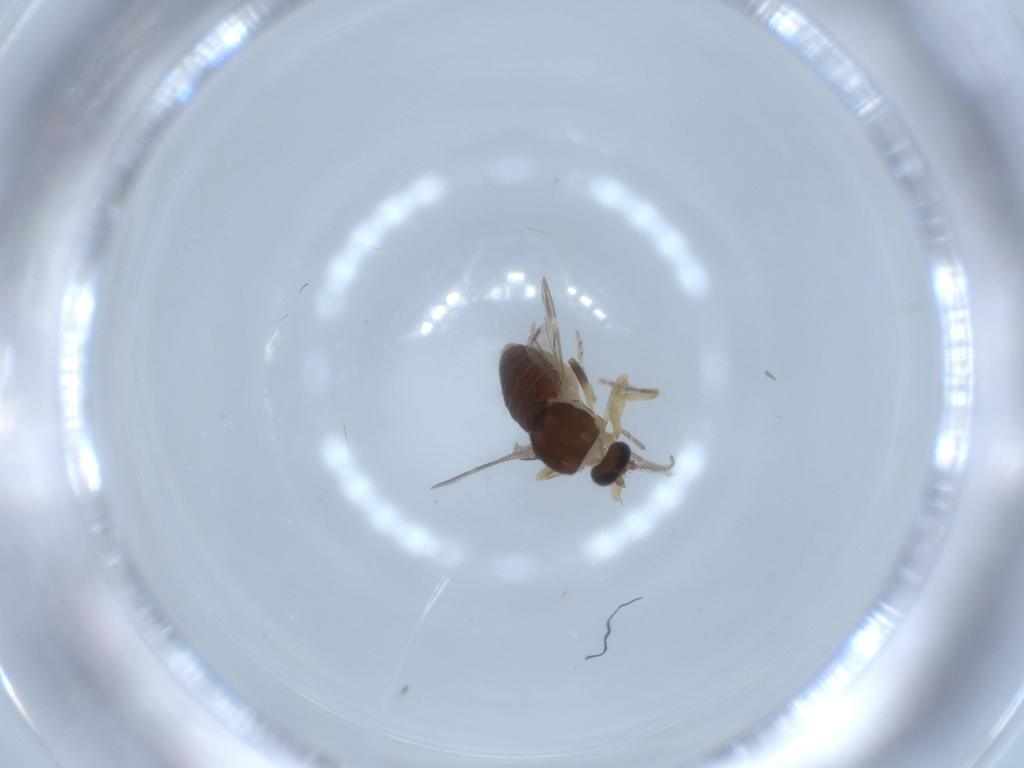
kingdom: Animalia
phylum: Arthropoda
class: Insecta
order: Diptera
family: Ceratopogonidae
